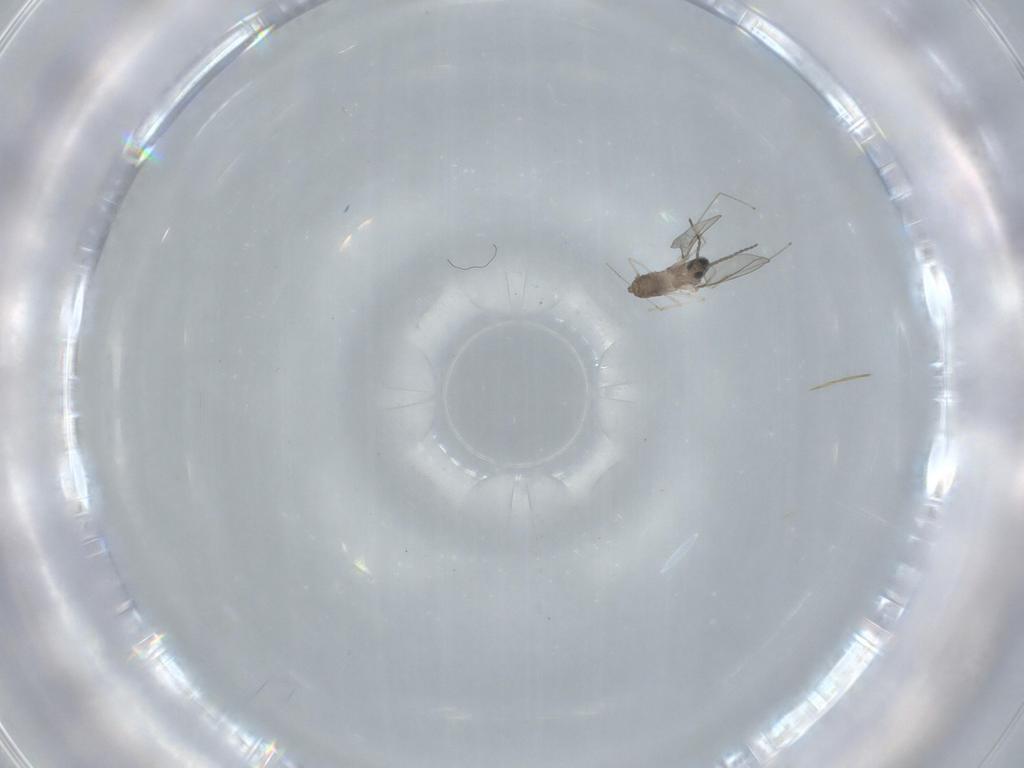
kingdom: Animalia
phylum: Arthropoda
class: Insecta
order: Diptera
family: Cecidomyiidae
